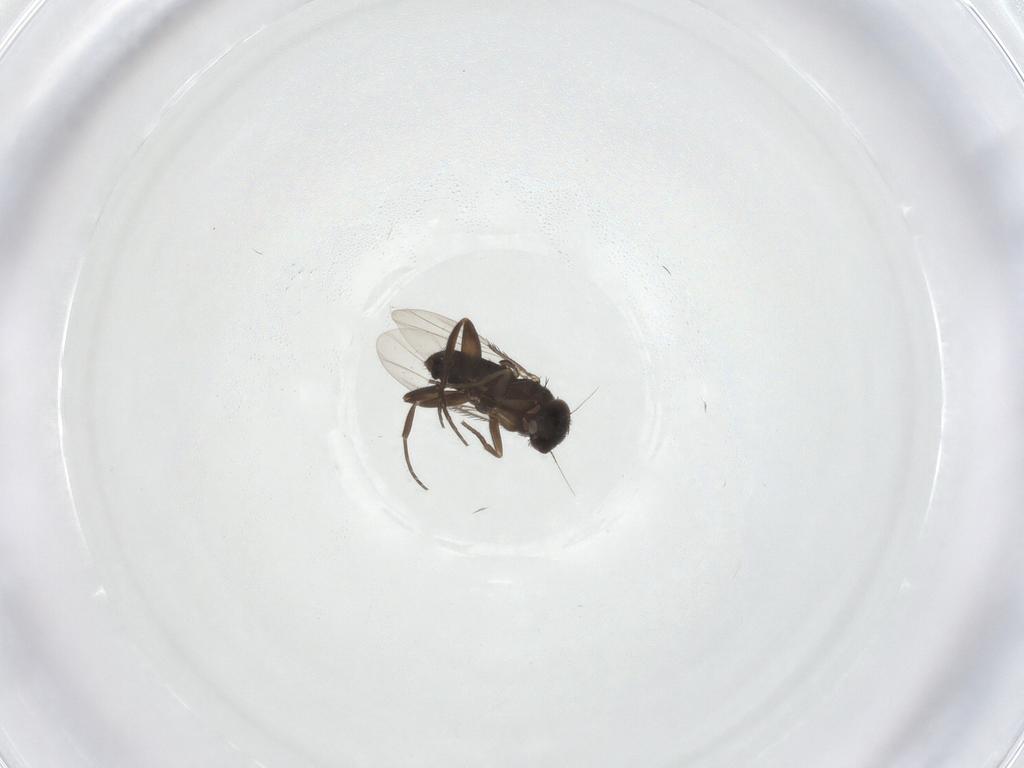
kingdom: Animalia
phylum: Arthropoda
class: Insecta
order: Diptera
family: Phoridae
